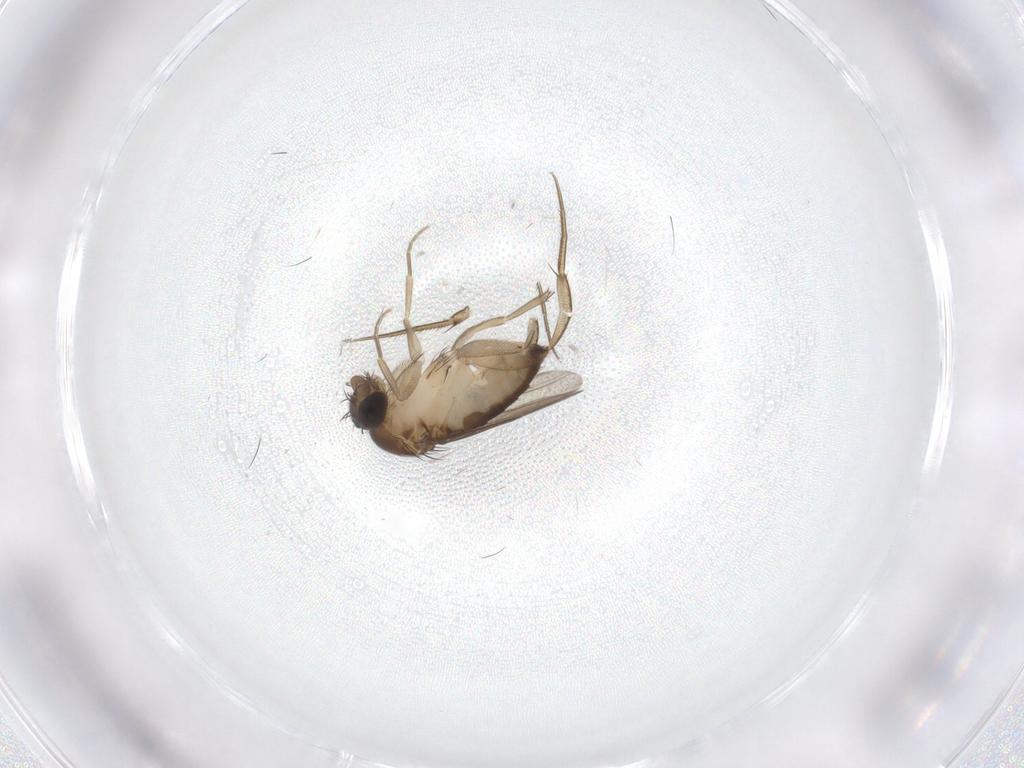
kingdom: Animalia
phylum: Arthropoda
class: Insecta
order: Diptera
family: Phoridae
